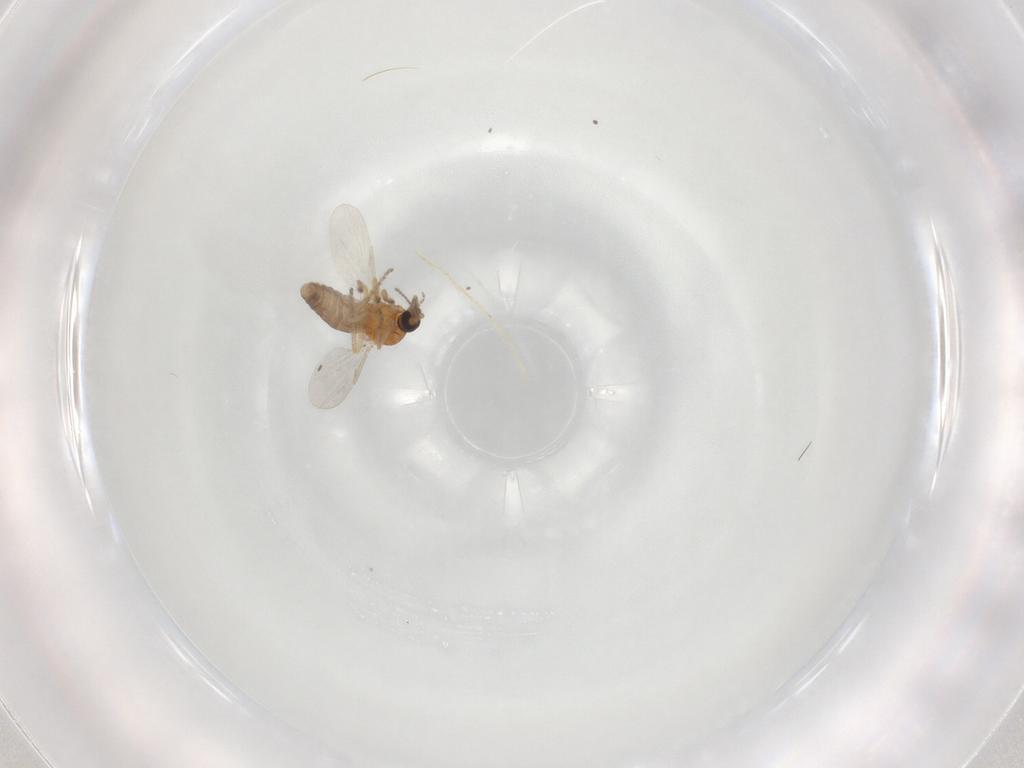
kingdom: Animalia
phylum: Arthropoda
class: Insecta
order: Diptera
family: Ceratopogonidae
